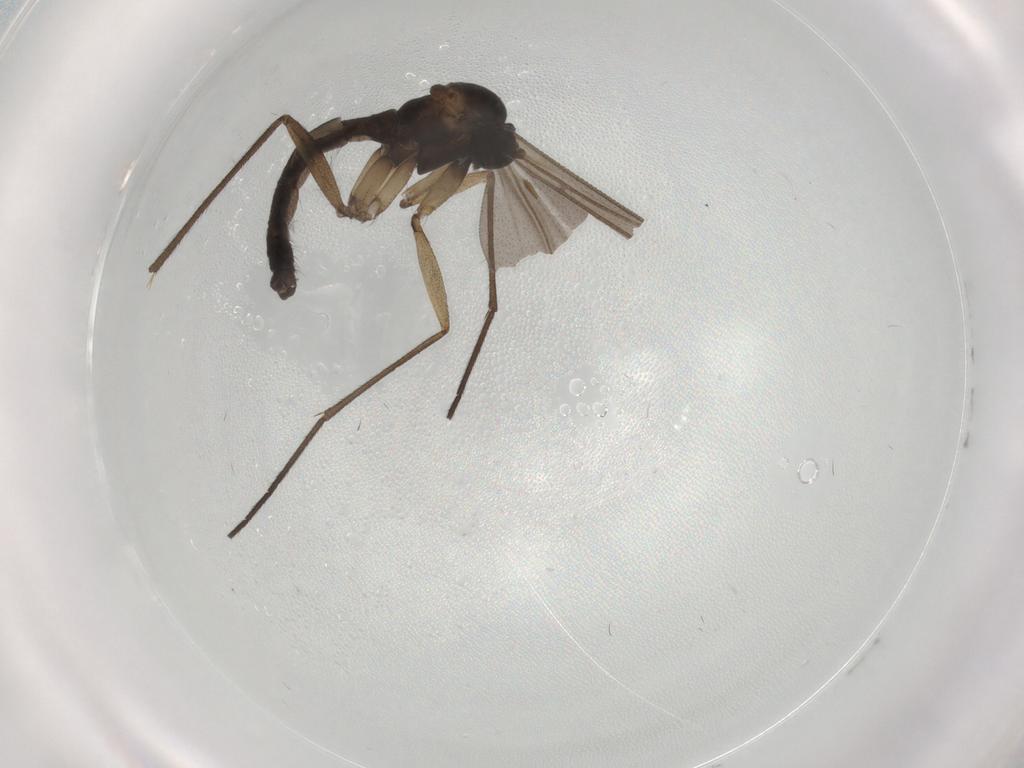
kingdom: Animalia
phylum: Arthropoda
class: Insecta
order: Diptera
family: Sciaridae
